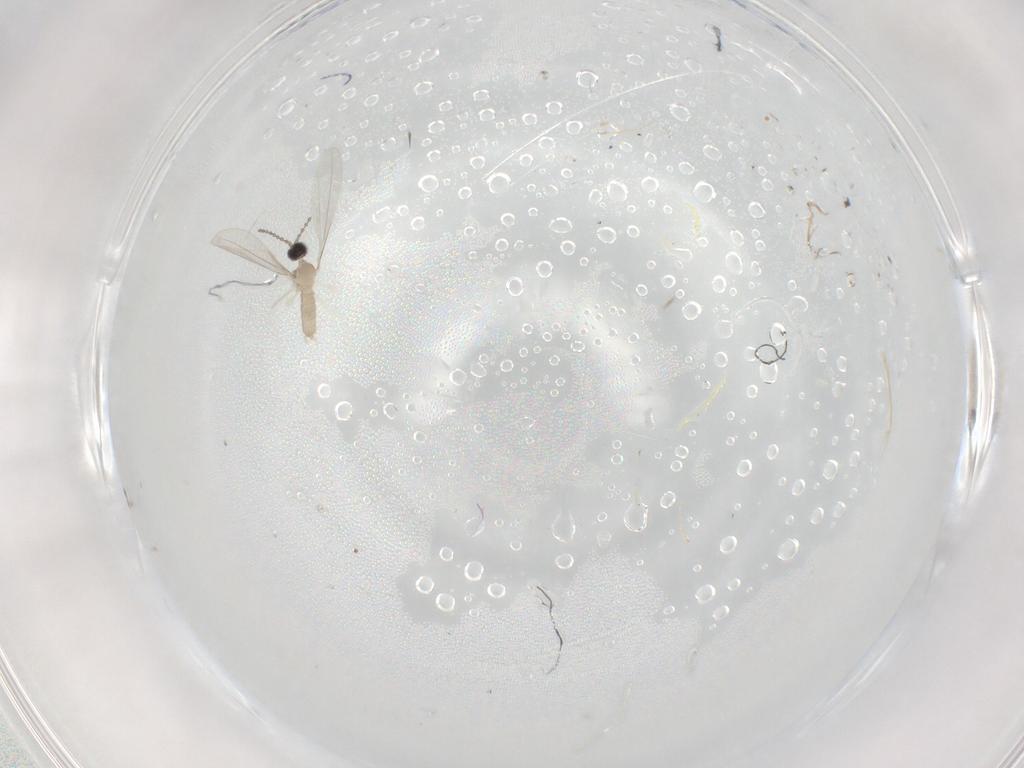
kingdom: Animalia
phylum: Arthropoda
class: Insecta
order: Diptera
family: Cecidomyiidae
